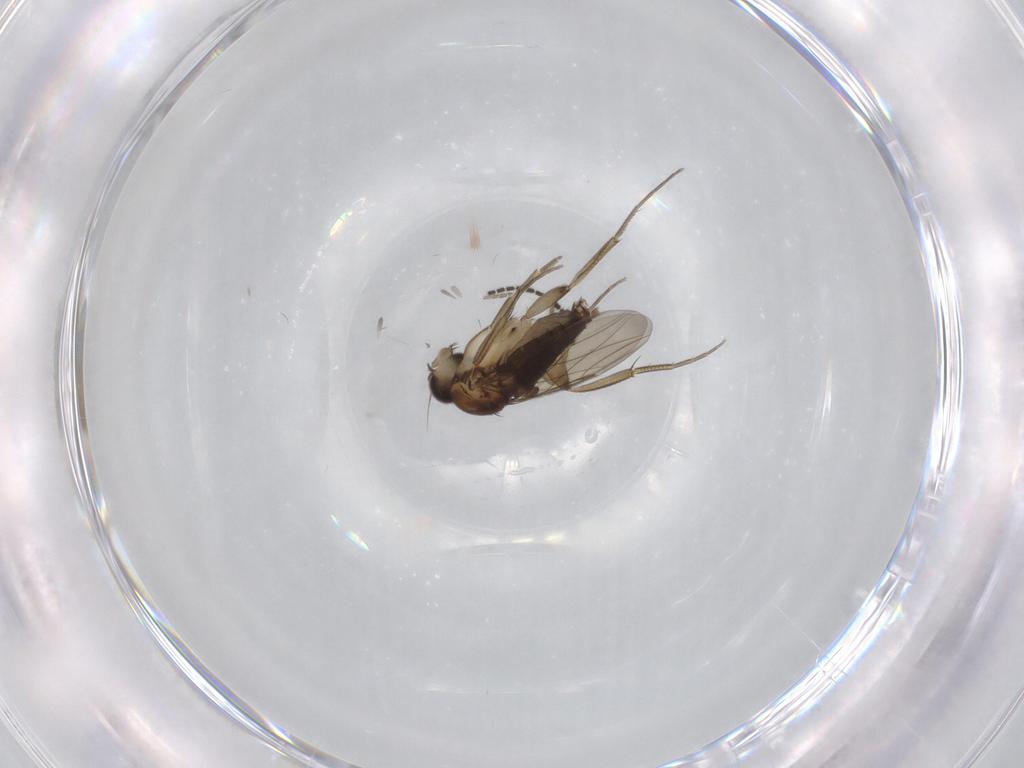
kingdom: Animalia
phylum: Arthropoda
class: Insecta
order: Diptera
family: Phoridae
